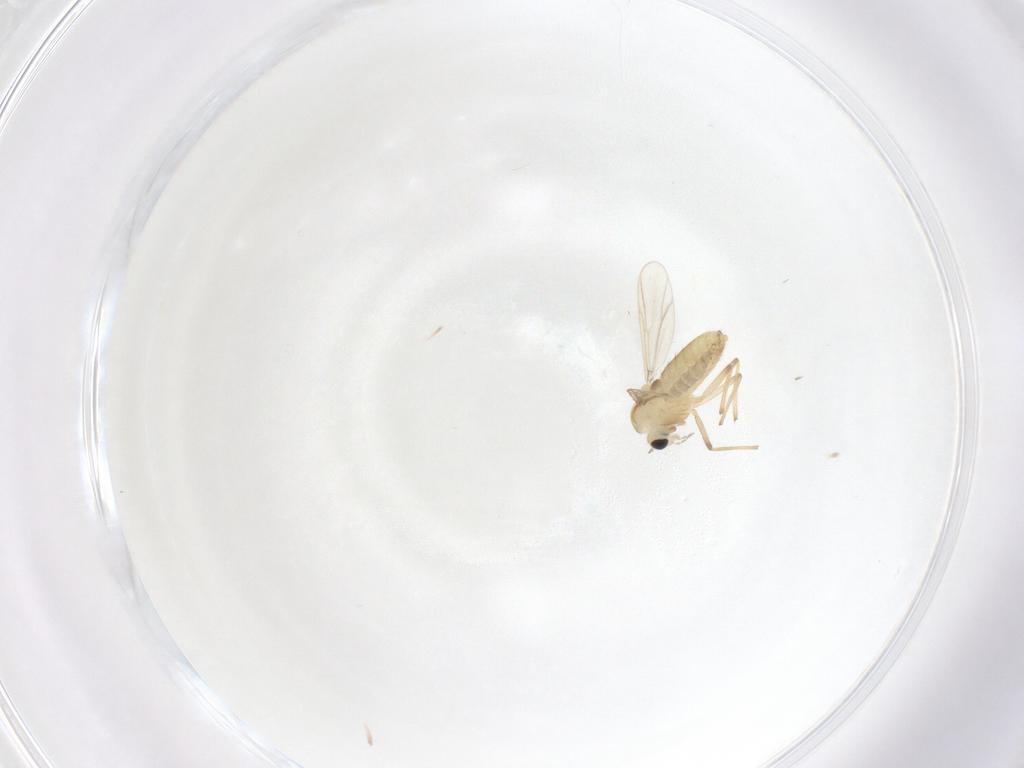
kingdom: Animalia
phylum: Arthropoda
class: Insecta
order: Diptera
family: Chironomidae
